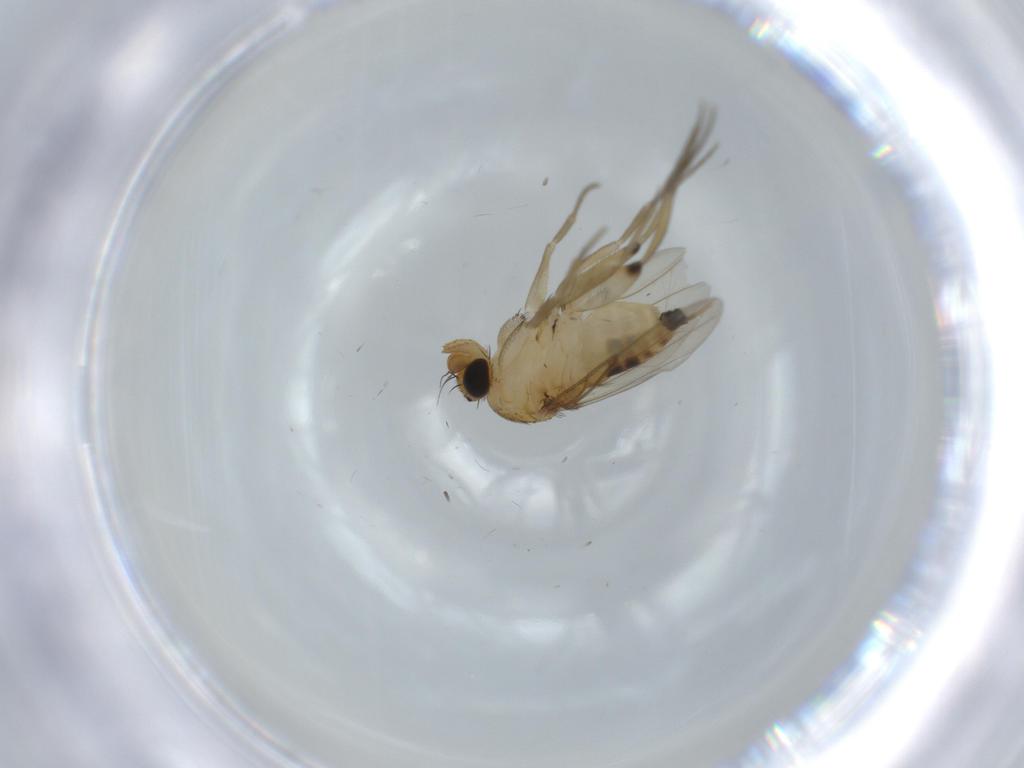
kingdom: Animalia
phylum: Arthropoda
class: Insecta
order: Diptera
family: Phoridae
